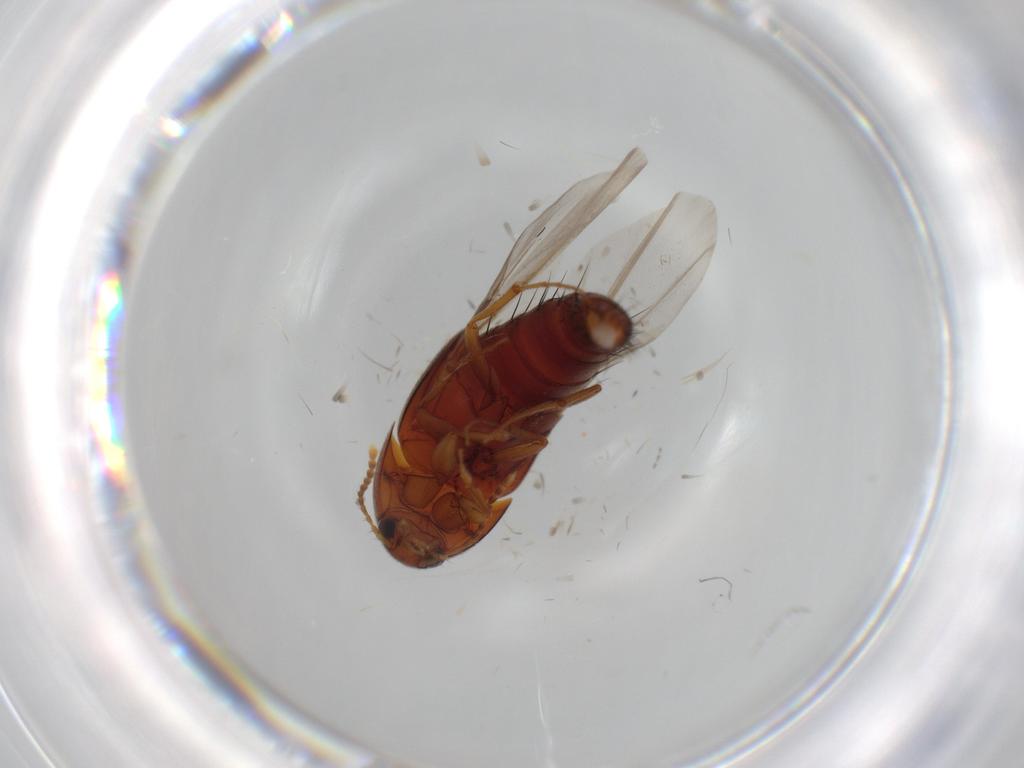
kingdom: Animalia
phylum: Arthropoda
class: Insecta
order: Coleoptera
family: Staphylinidae
